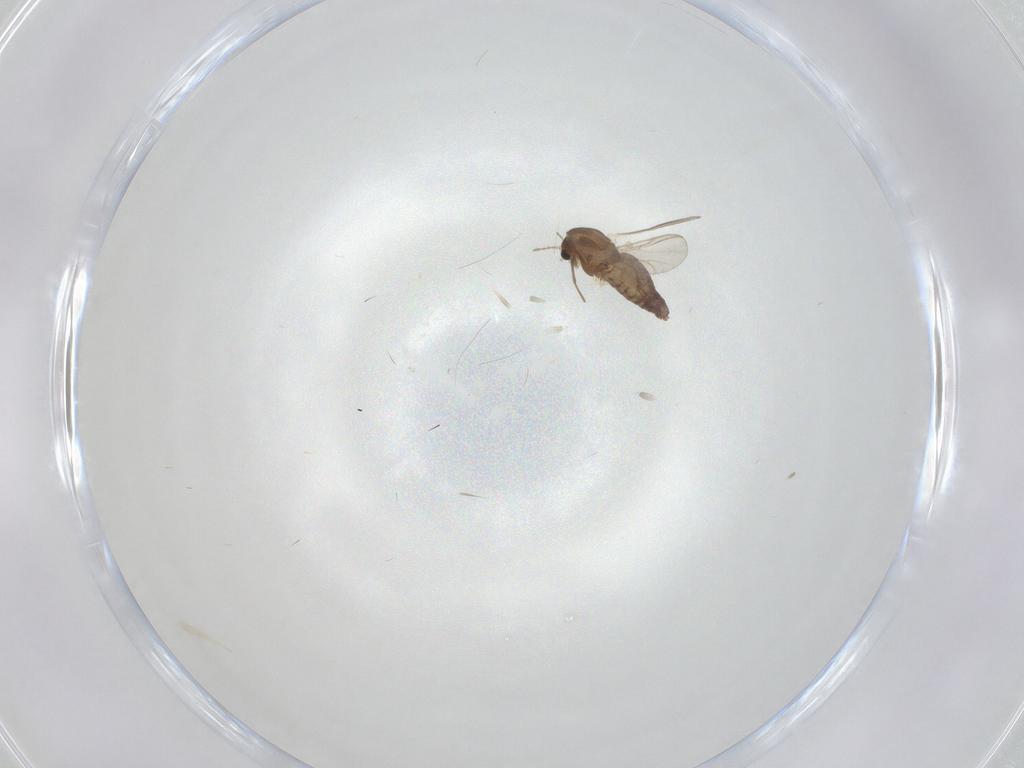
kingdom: Animalia
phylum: Arthropoda
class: Insecta
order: Diptera
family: Chironomidae
